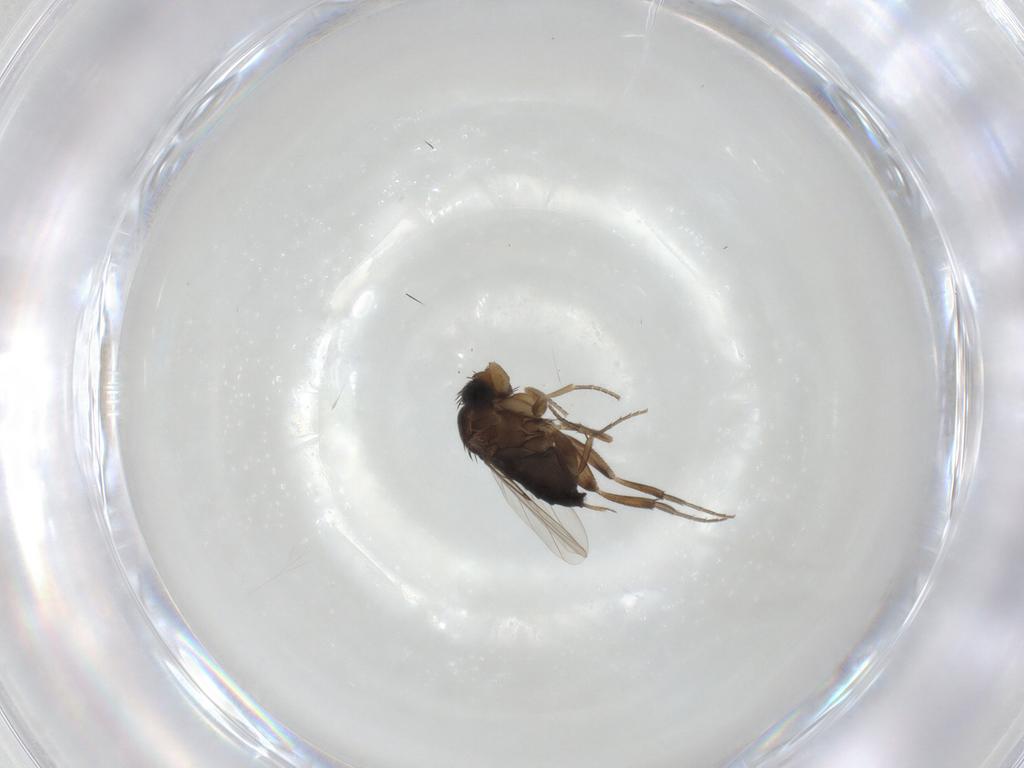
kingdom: Animalia
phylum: Arthropoda
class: Insecta
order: Diptera
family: Phoridae
